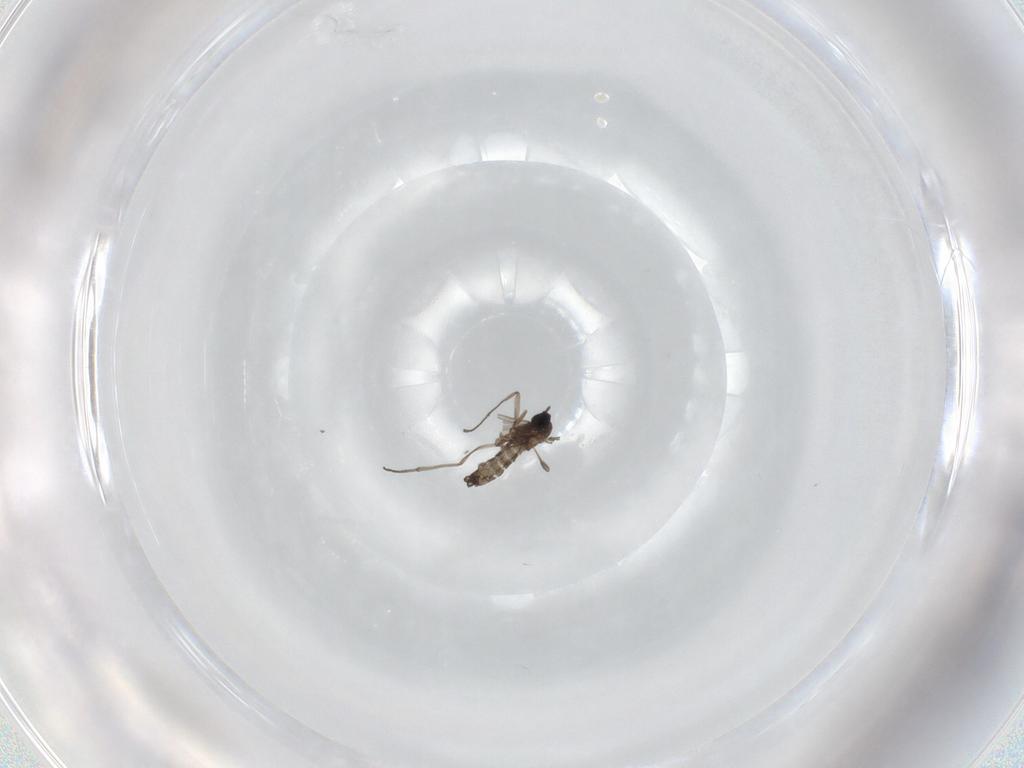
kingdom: Animalia
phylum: Arthropoda
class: Insecta
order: Diptera
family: Sciaridae
